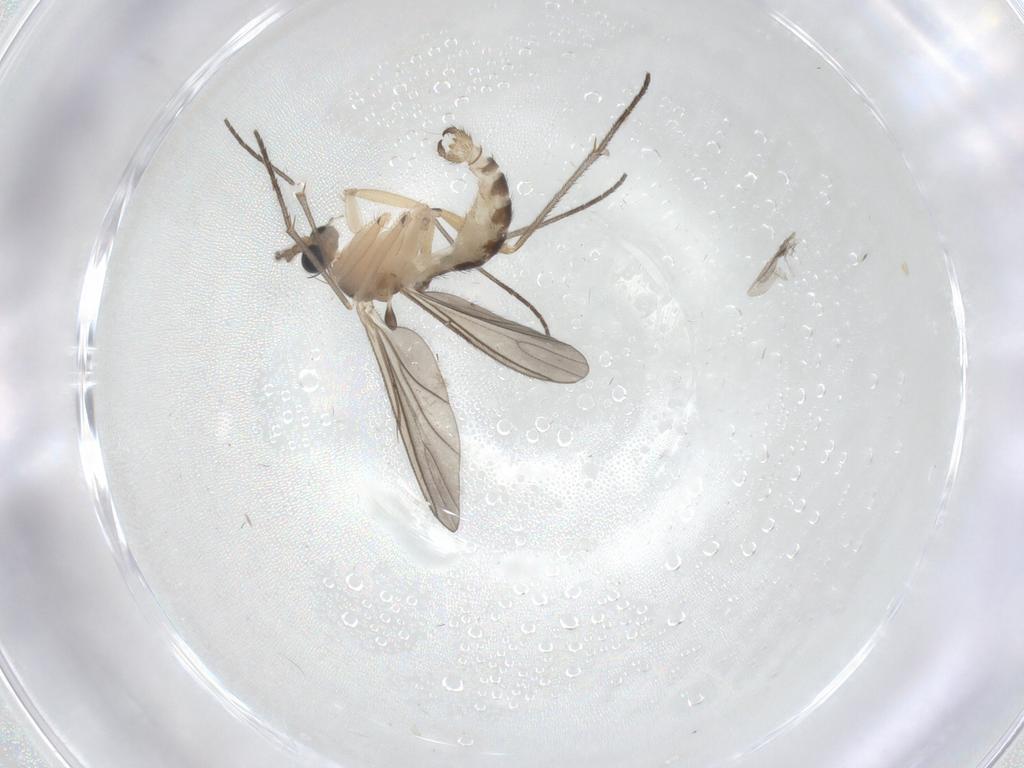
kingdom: Animalia
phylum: Arthropoda
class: Insecta
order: Diptera
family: Sciaridae
